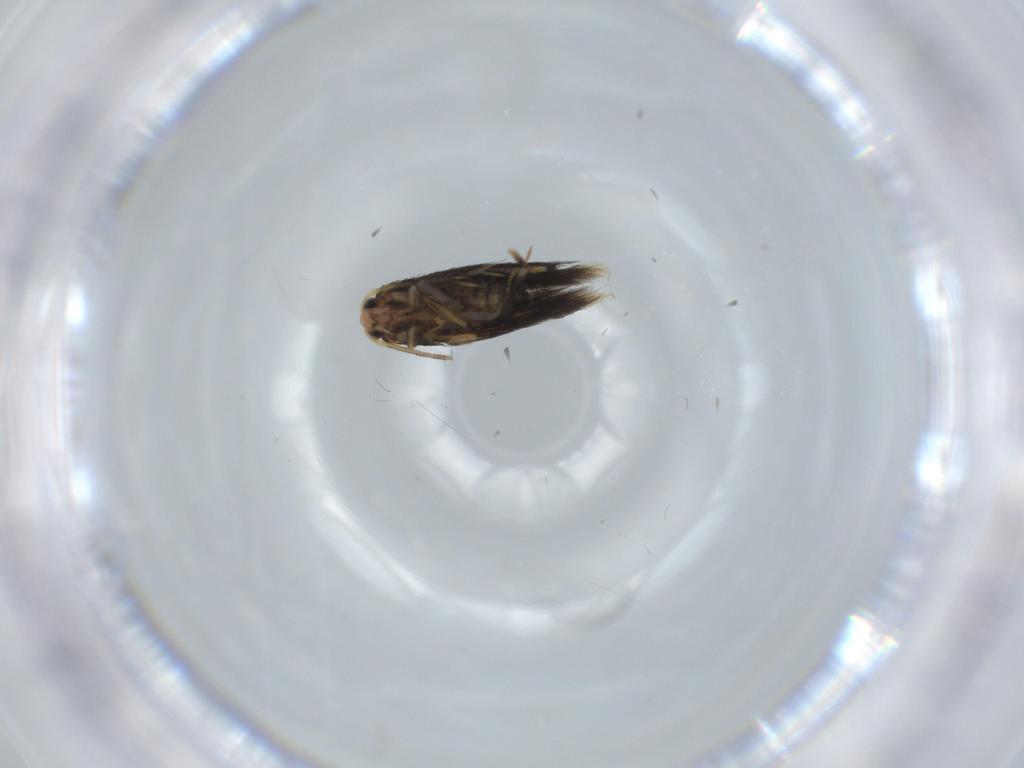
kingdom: Animalia
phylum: Arthropoda
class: Insecta
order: Lepidoptera
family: Nepticulidae
